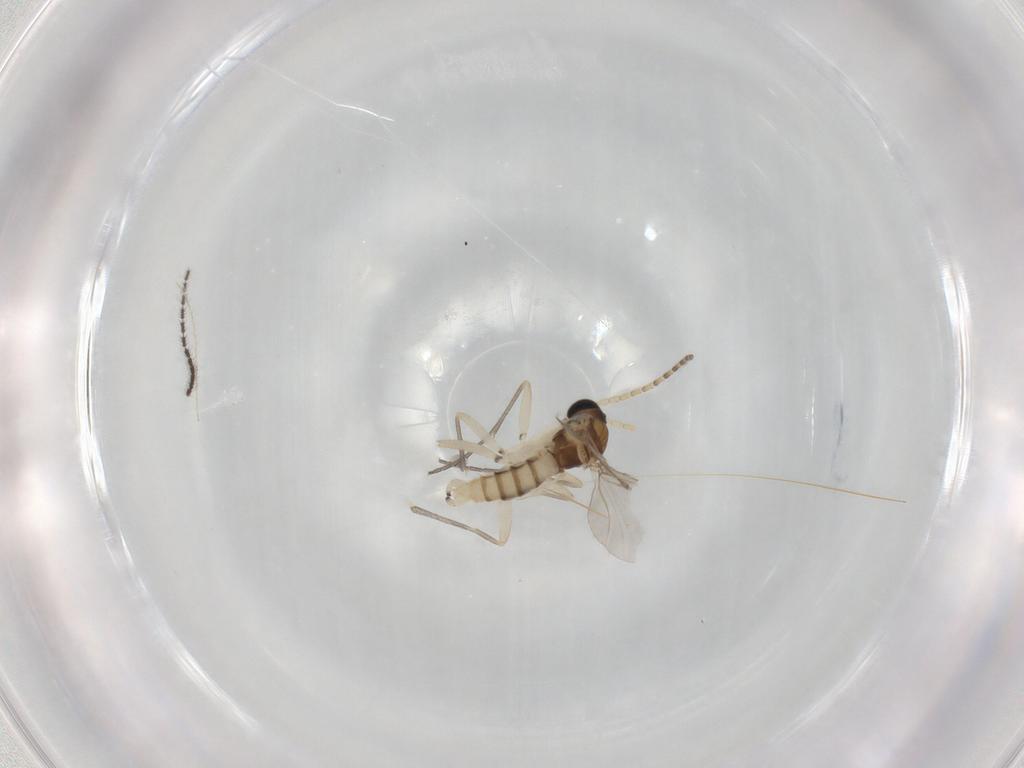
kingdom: Animalia
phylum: Arthropoda
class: Insecta
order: Diptera
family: Sciaridae
